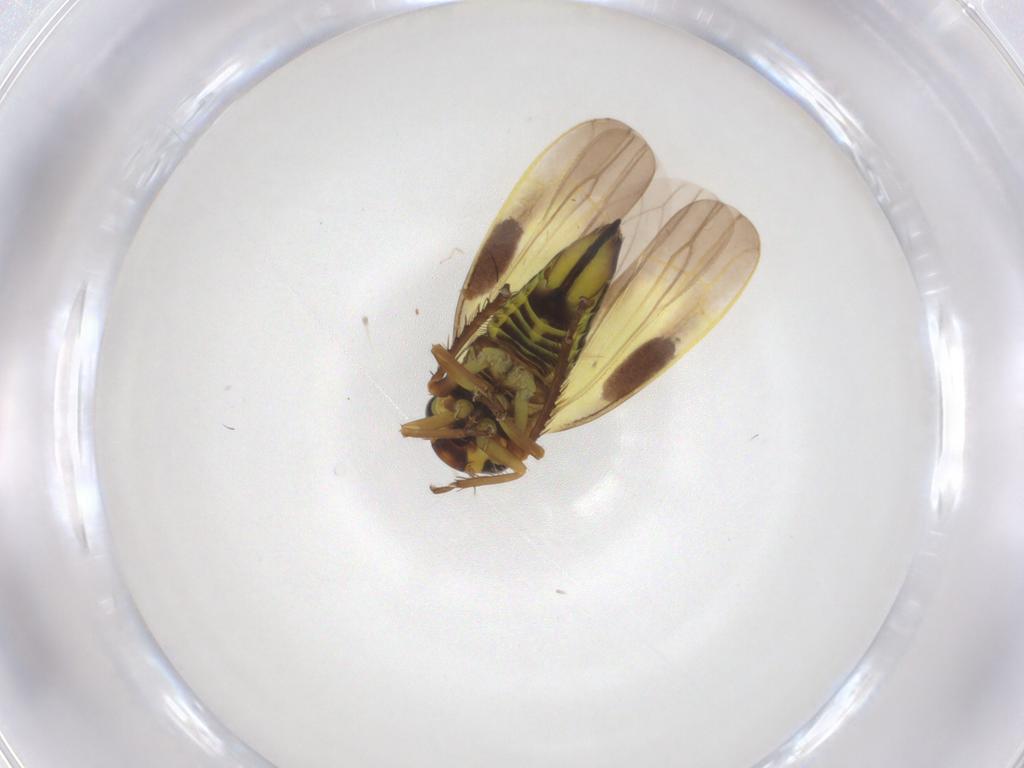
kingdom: Animalia
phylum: Arthropoda
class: Insecta
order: Hemiptera
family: Cicadellidae
